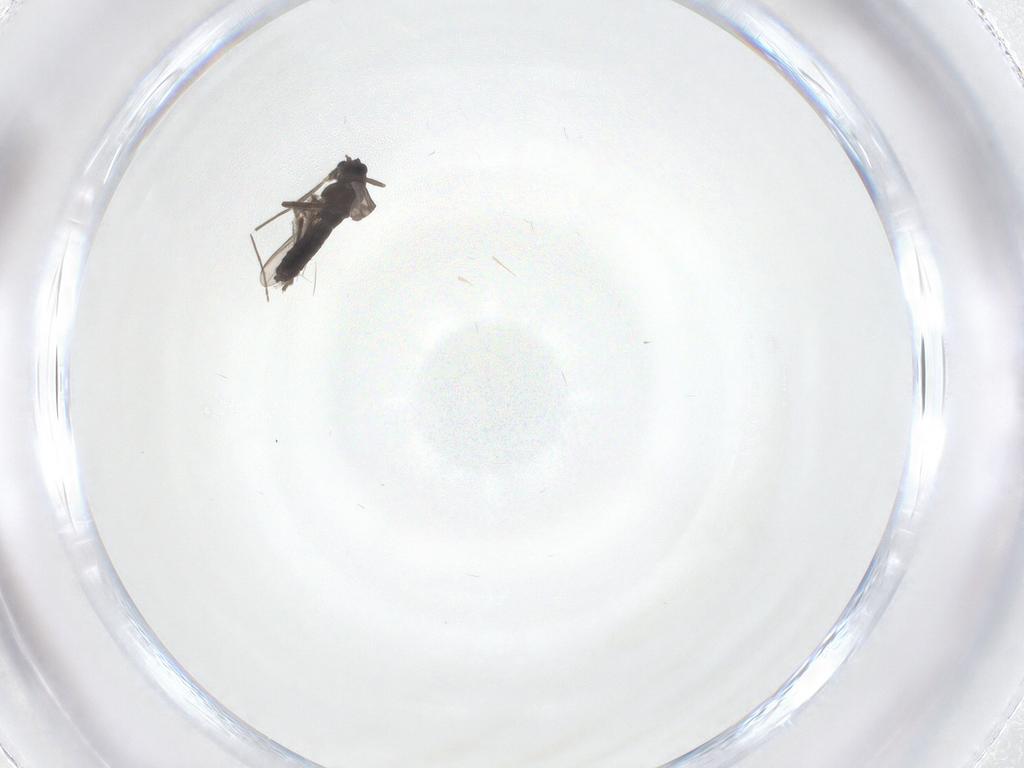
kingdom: Animalia
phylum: Arthropoda
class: Insecta
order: Diptera
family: Chironomidae
